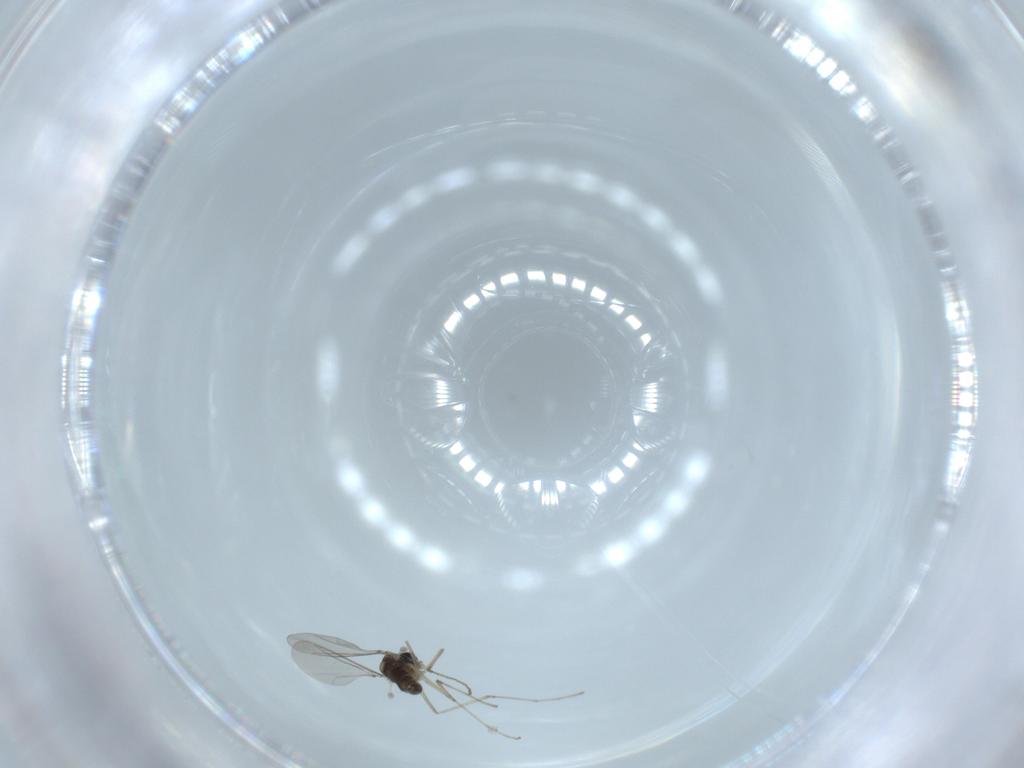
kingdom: Animalia
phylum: Arthropoda
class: Insecta
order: Diptera
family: Cecidomyiidae
